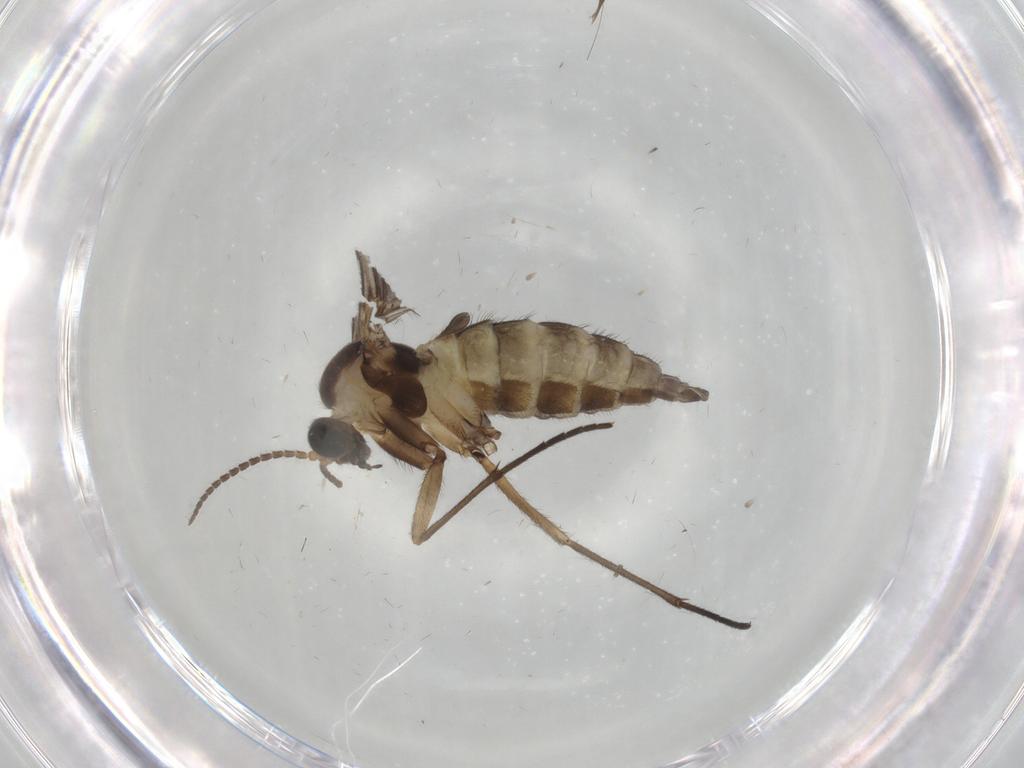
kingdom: Animalia
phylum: Arthropoda
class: Insecta
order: Diptera
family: Sciaridae
